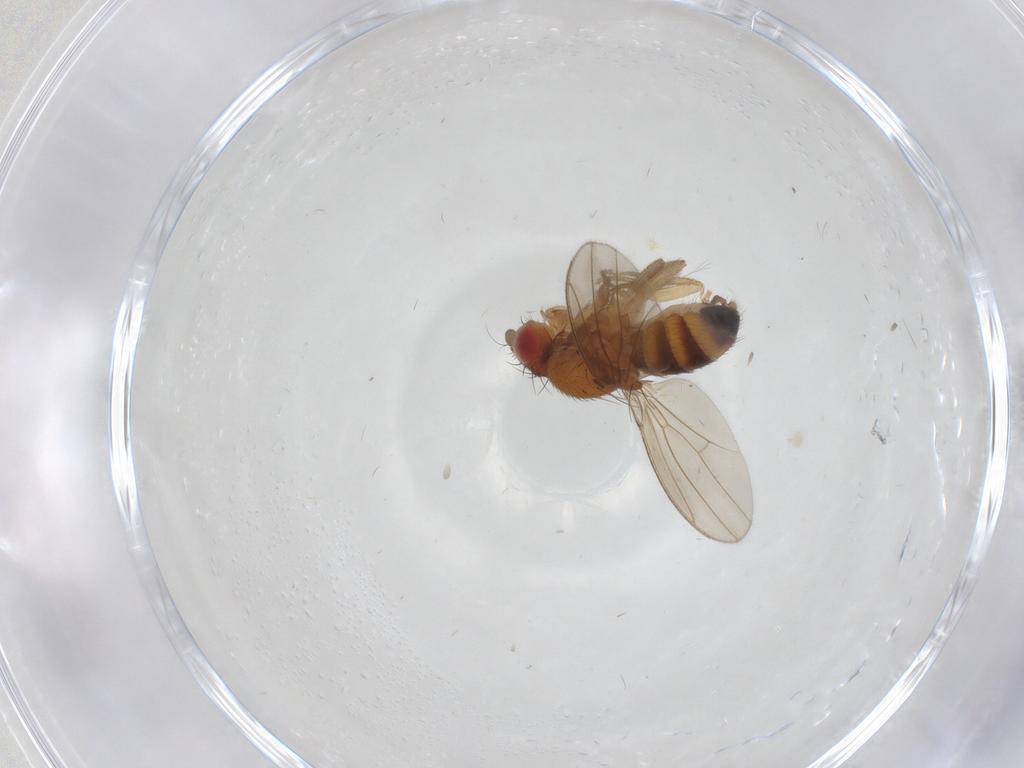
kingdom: Animalia
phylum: Arthropoda
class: Insecta
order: Diptera
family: Drosophilidae
